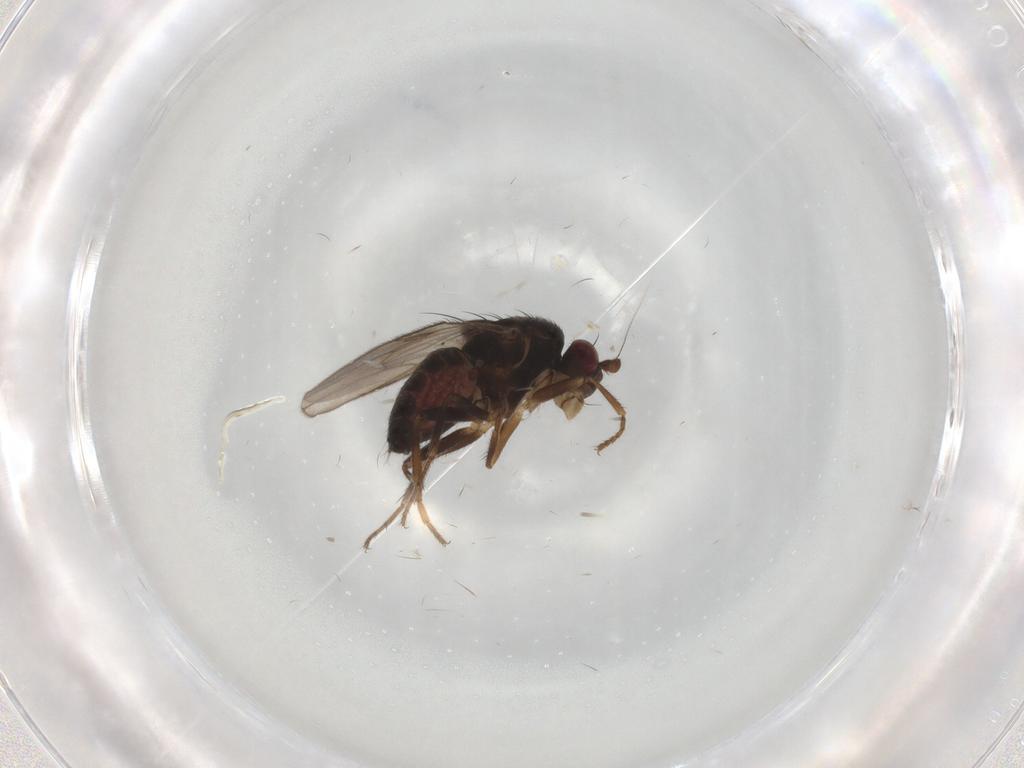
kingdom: Animalia
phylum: Arthropoda
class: Insecta
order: Diptera
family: Sphaeroceridae
